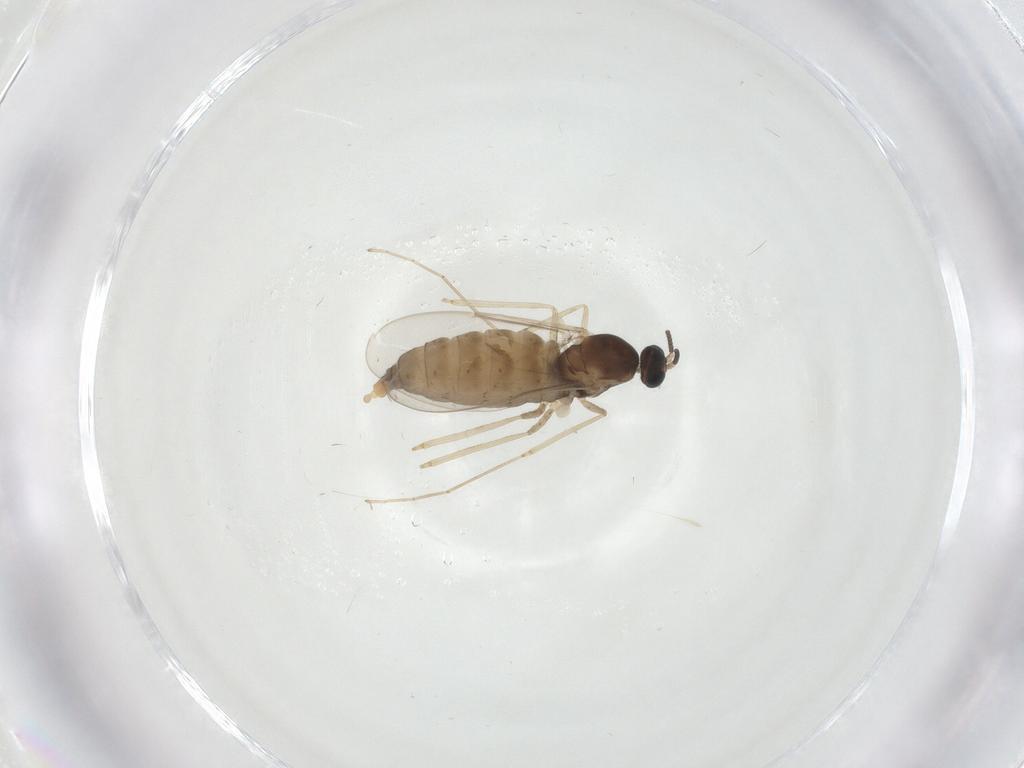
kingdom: Animalia
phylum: Arthropoda
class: Insecta
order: Diptera
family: Cecidomyiidae
